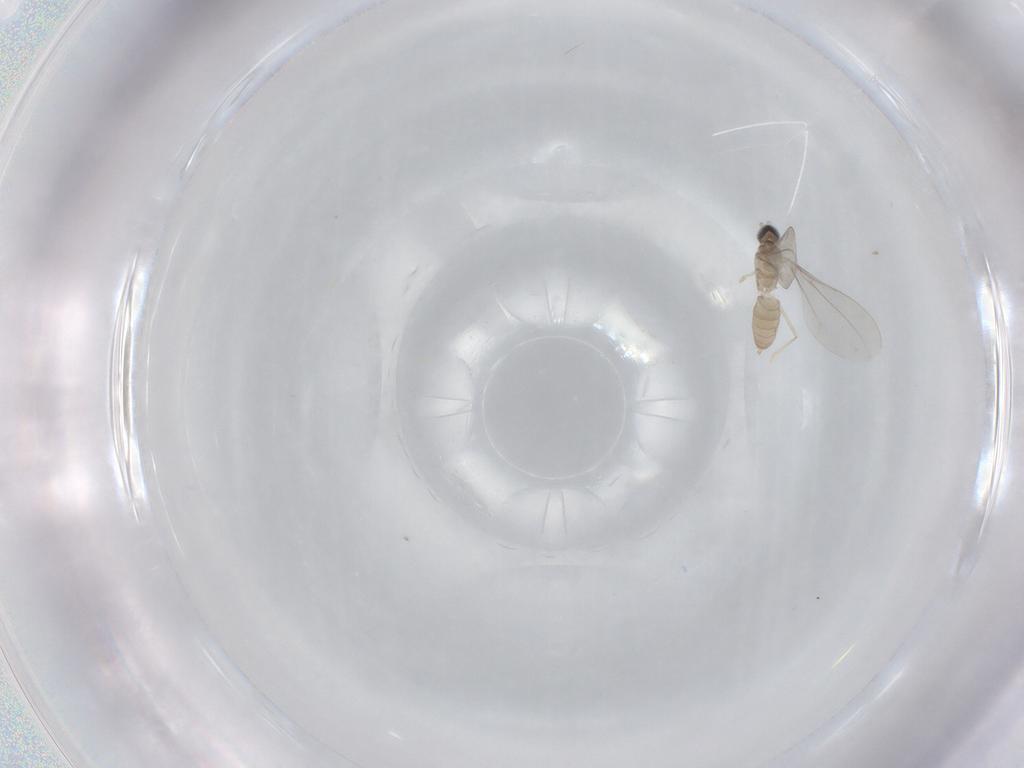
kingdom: Animalia
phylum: Arthropoda
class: Insecta
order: Diptera
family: Cecidomyiidae
